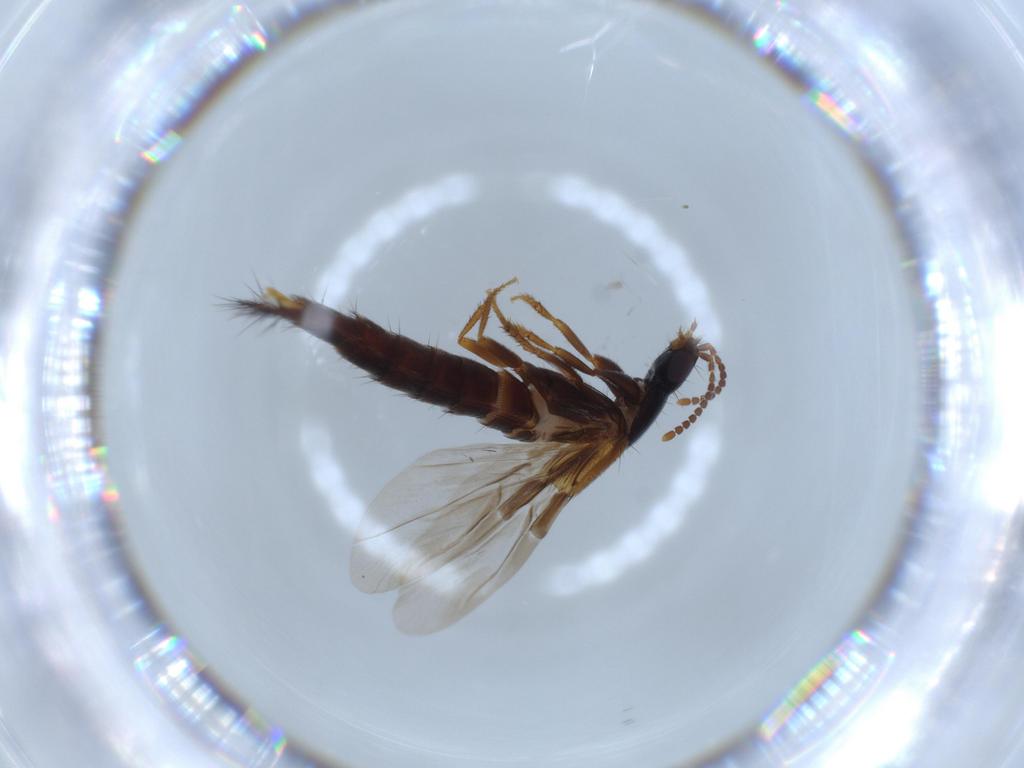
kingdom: Animalia
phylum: Arthropoda
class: Insecta
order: Coleoptera
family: Staphylinidae
